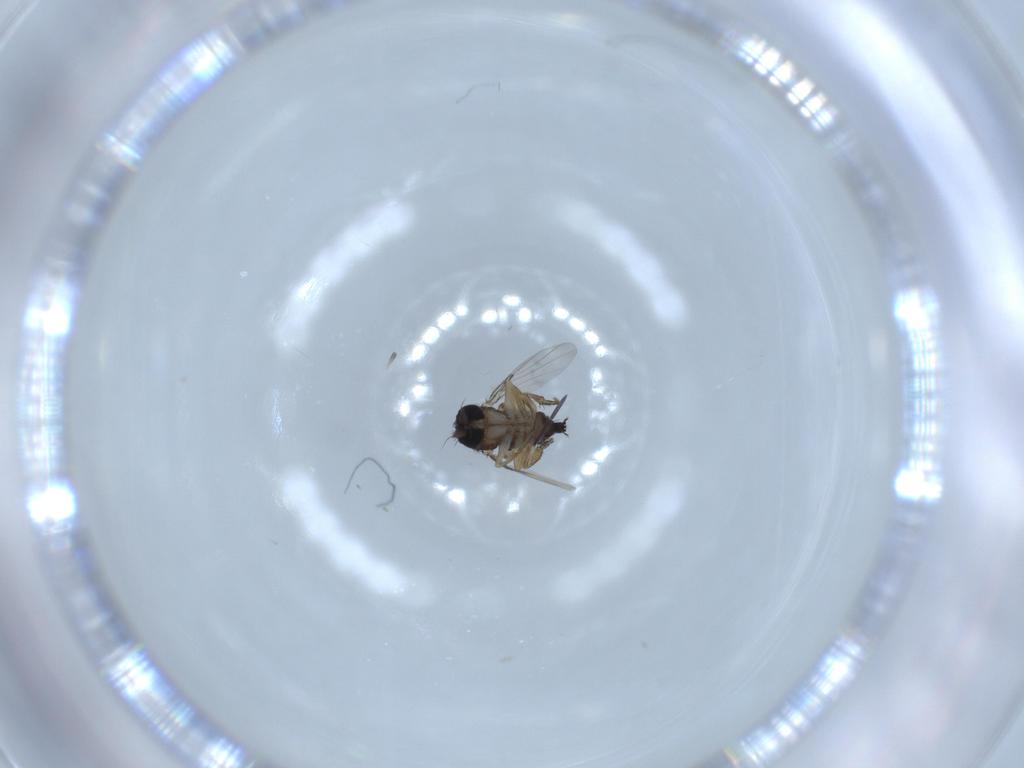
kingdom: Animalia
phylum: Arthropoda
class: Insecta
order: Diptera
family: Phoridae
